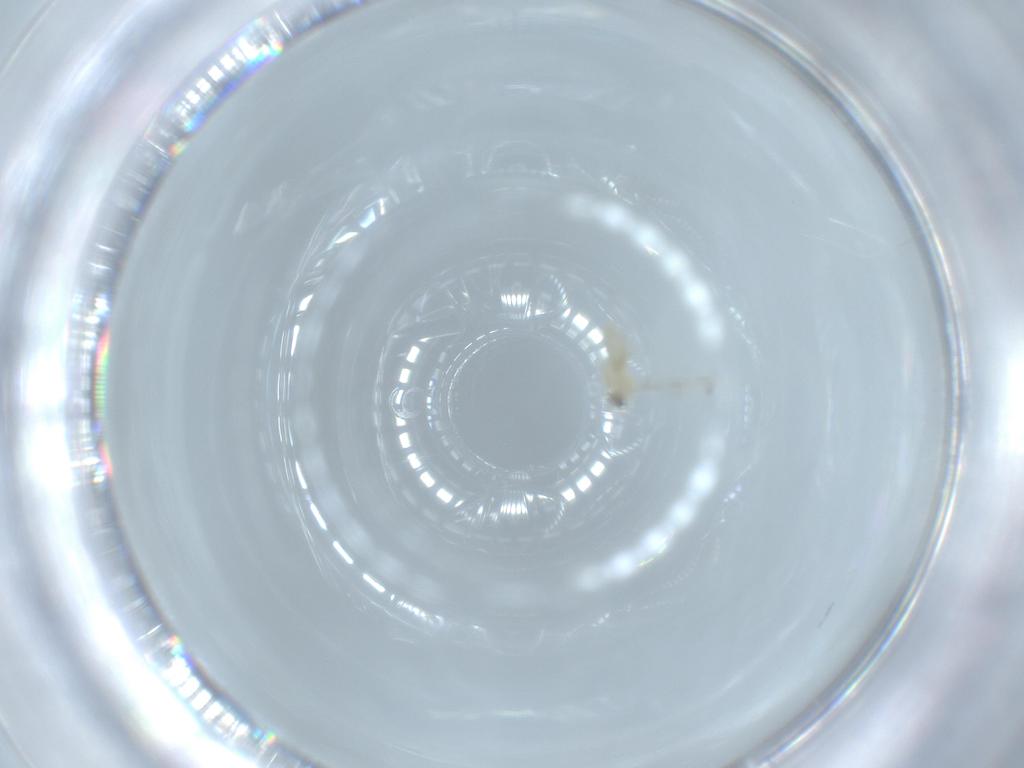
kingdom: Animalia
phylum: Arthropoda
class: Insecta
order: Diptera
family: Cecidomyiidae
